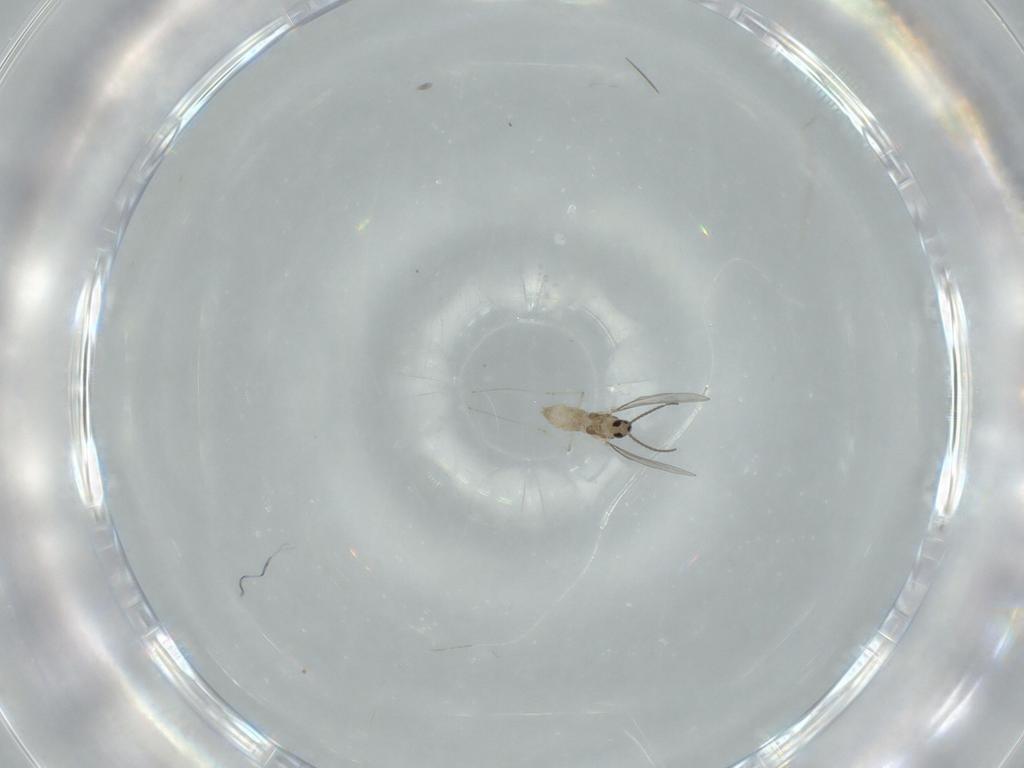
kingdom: Animalia
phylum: Arthropoda
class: Insecta
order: Diptera
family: Cecidomyiidae
